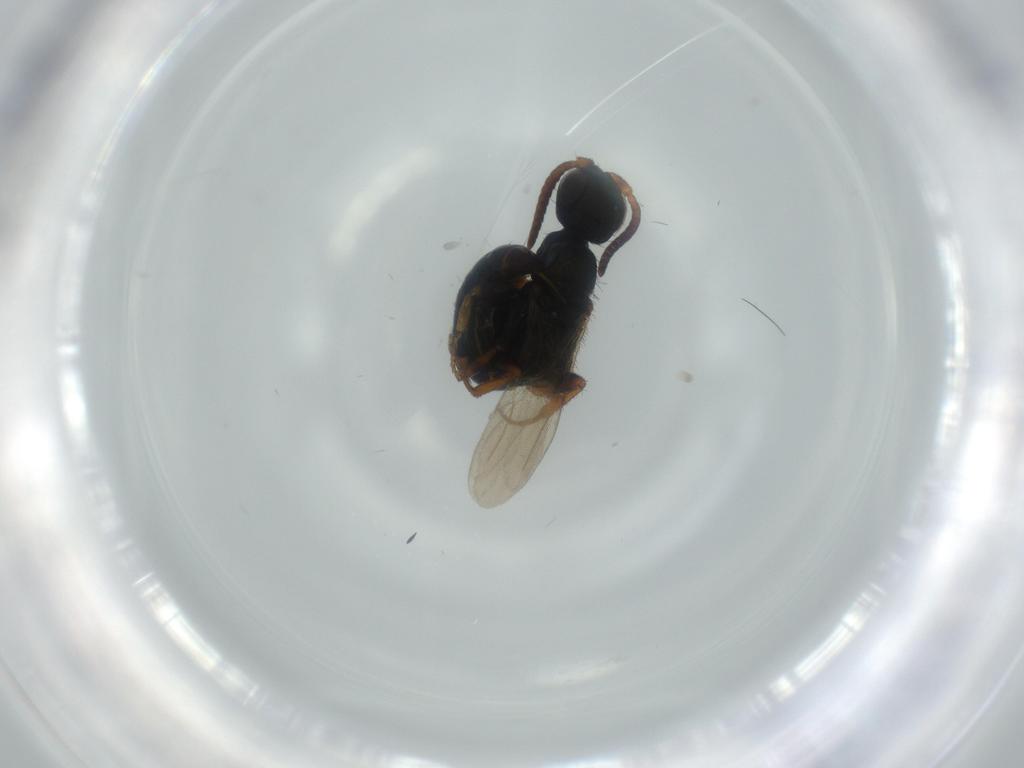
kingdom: Animalia
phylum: Arthropoda
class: Insecta
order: Hymenoptera
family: Bethylidae
